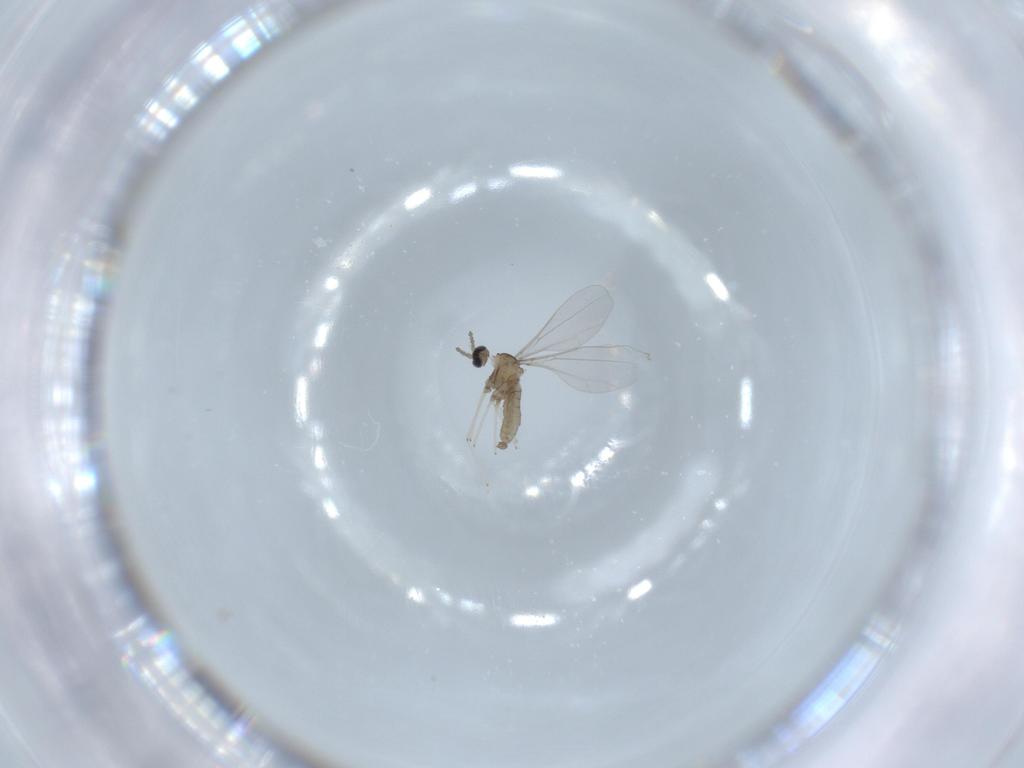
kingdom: Animalia
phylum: Arthropoda
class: Insecta
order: Diptera
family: Cecidomyiidae
